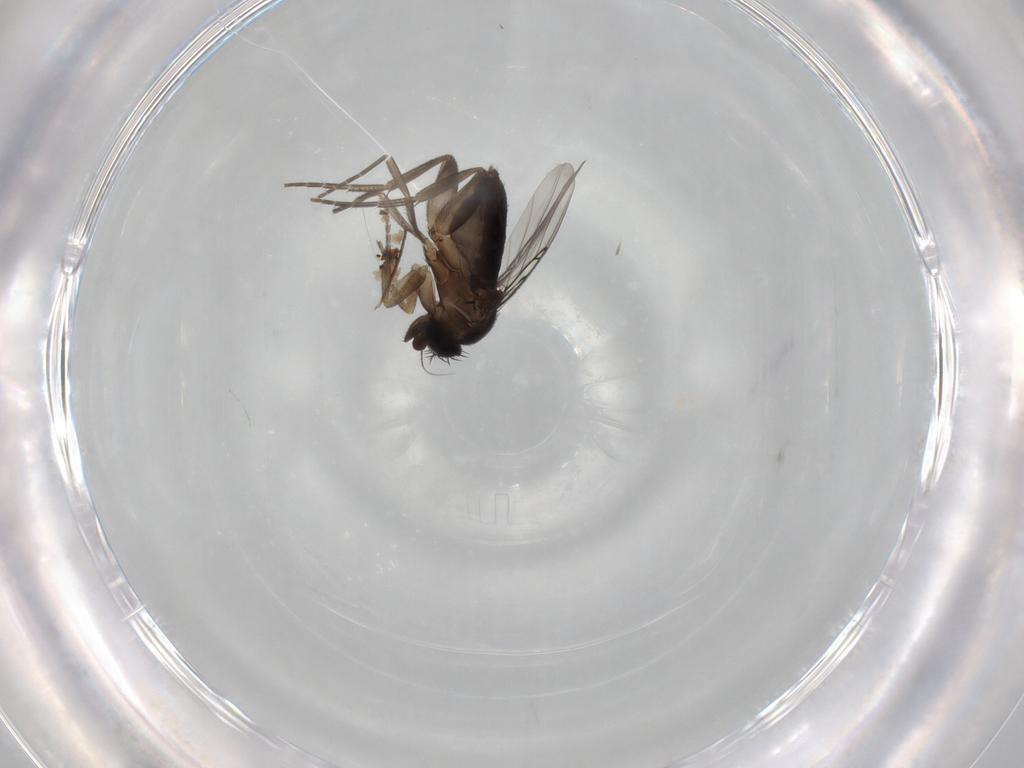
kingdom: Animalia
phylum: Arthropoda
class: Insecta
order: Diptera
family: Phoridae
